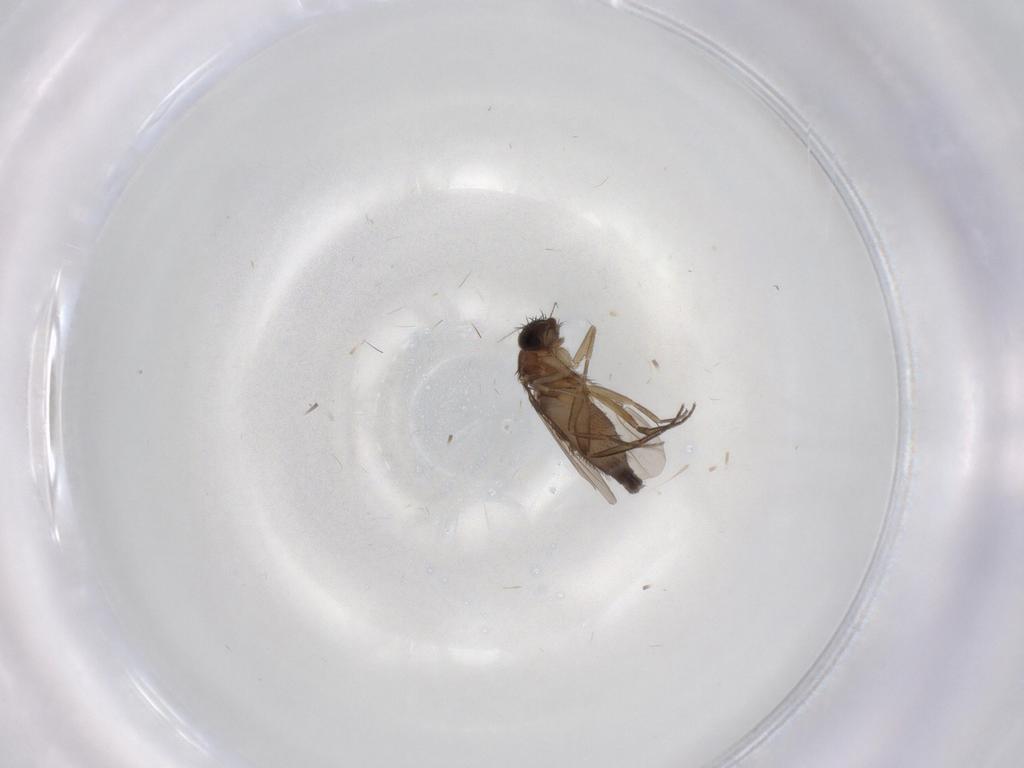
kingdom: Animalia
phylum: Arthropoda
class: Insecta
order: Diptera
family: Phoridae
